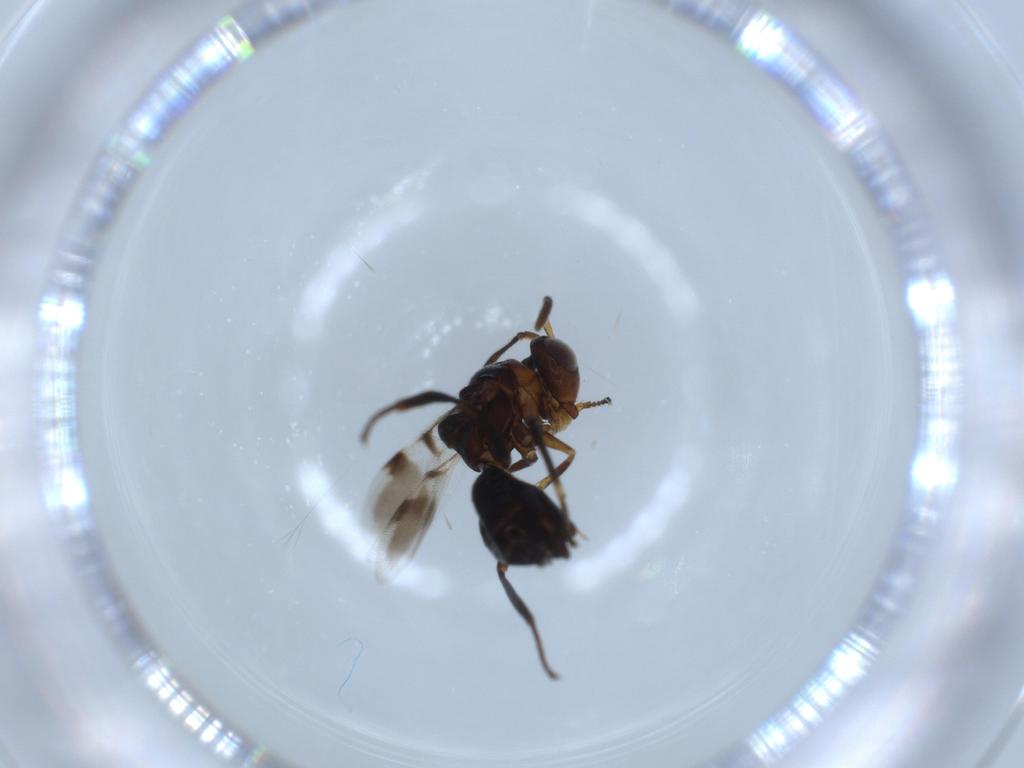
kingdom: Animalia
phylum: Arthropoda
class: Insecta
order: Hymenoptera
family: Encyrtidae
